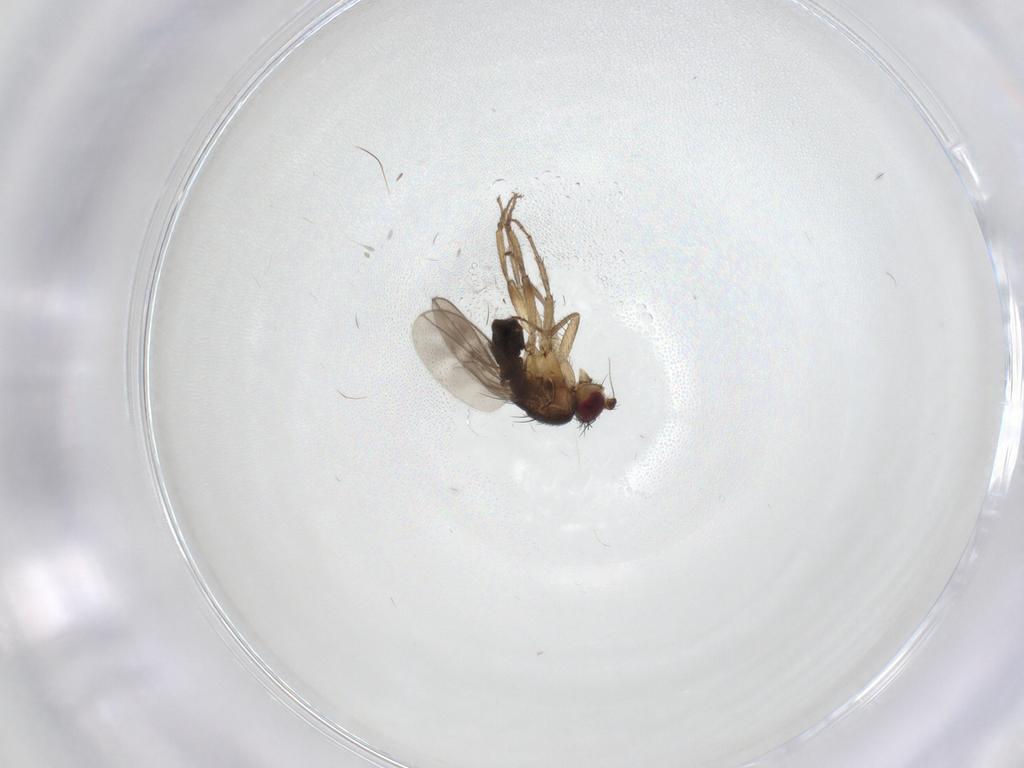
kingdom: Animalia
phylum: Arthropoda
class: Insecta
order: Diptera
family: Sphaeroceridae
